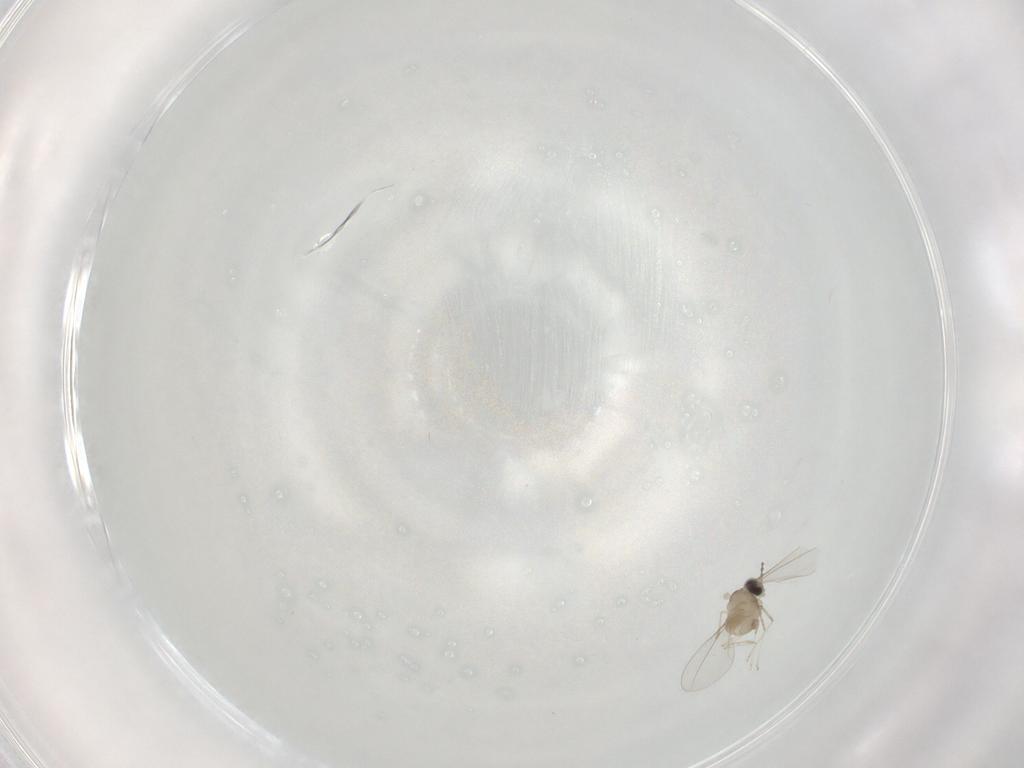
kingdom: Animalia
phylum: Arthropoda
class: Insecta
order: Diptera
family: Cecidomyiidae
